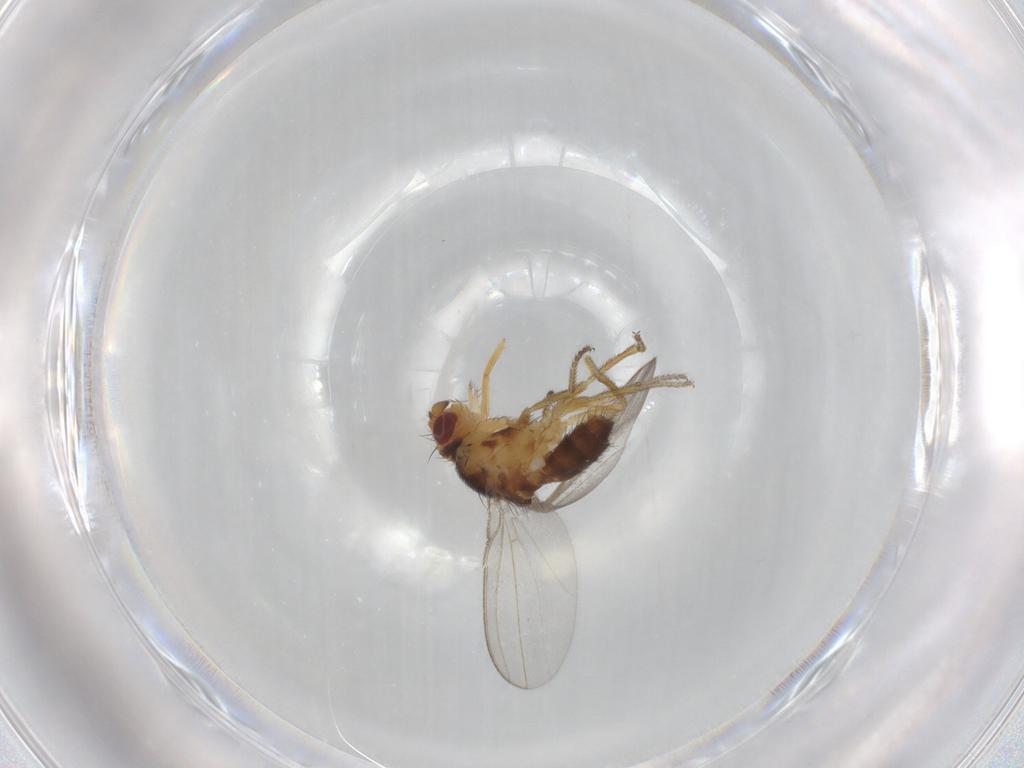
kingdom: Animalia
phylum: Arthropoda
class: Insecta
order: Diptera
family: Milichiidae
